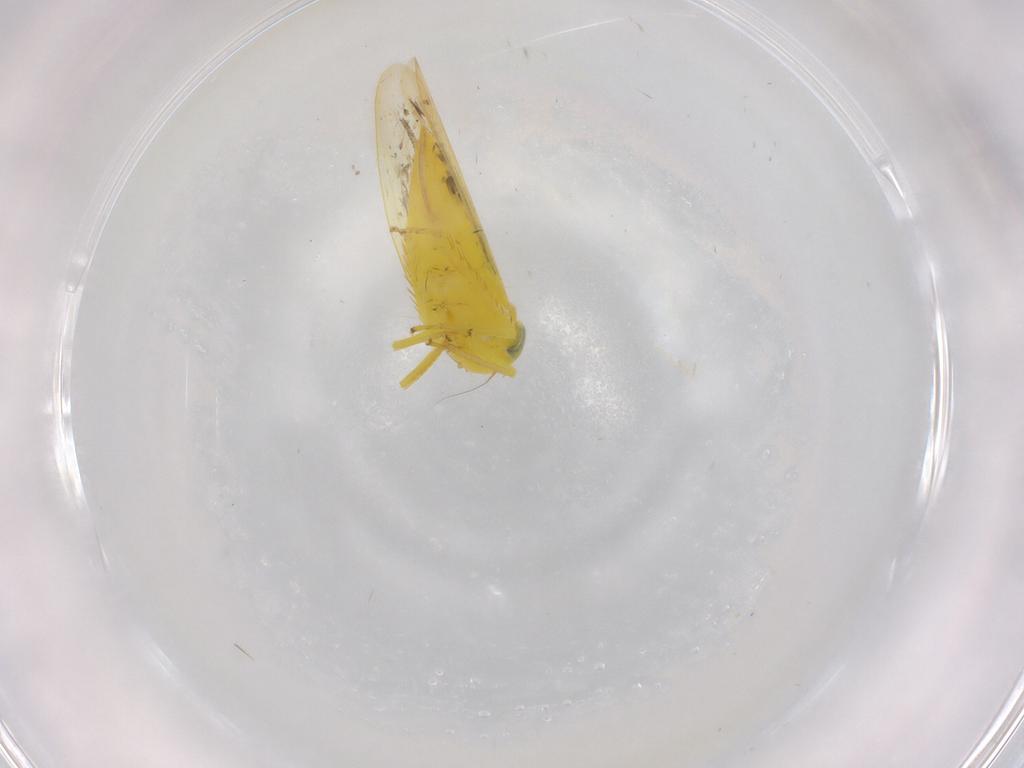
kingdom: Animalia
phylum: Arthropoda
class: Insecta
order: Hemiptera
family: Cicadellidae
